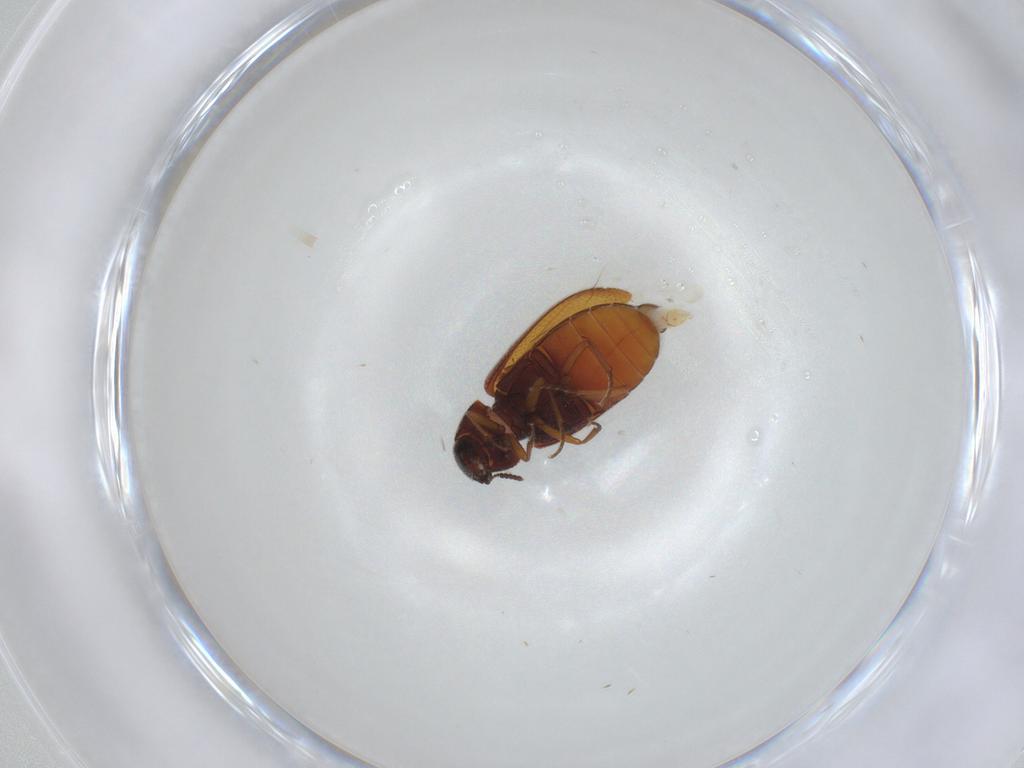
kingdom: Animalia
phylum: Arthropoda
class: Insecta
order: Coleoptera
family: Rhadalidae
